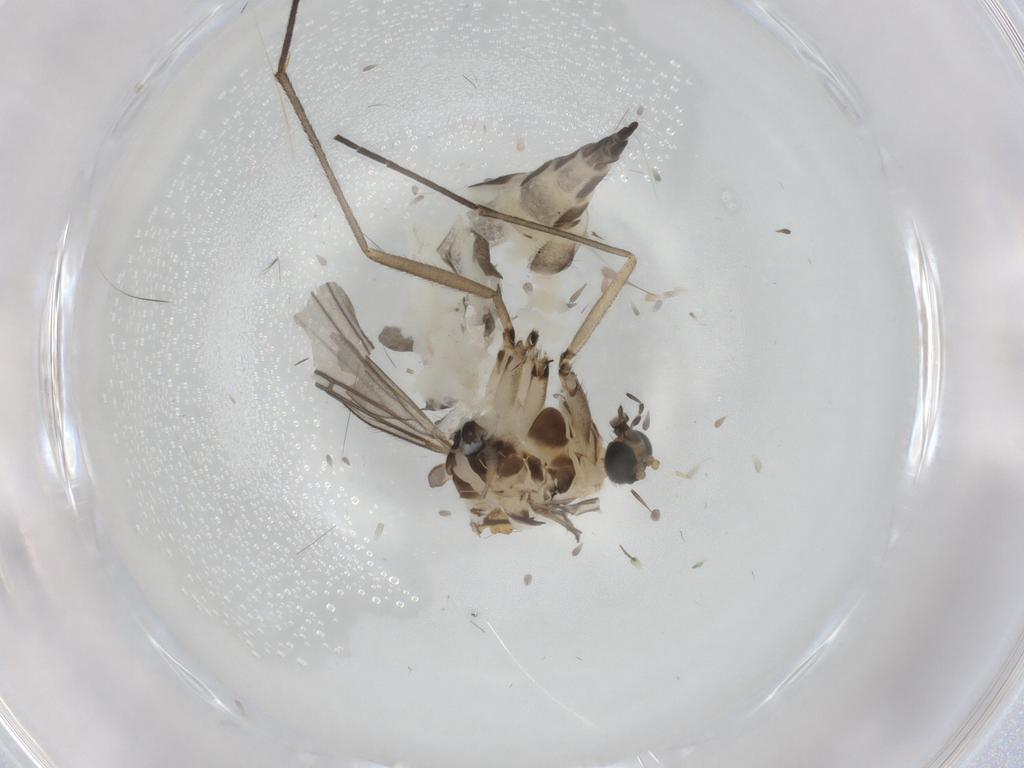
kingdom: Animalia
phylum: Arthropoda
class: Insecta
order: Diptera
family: Sciaridae
